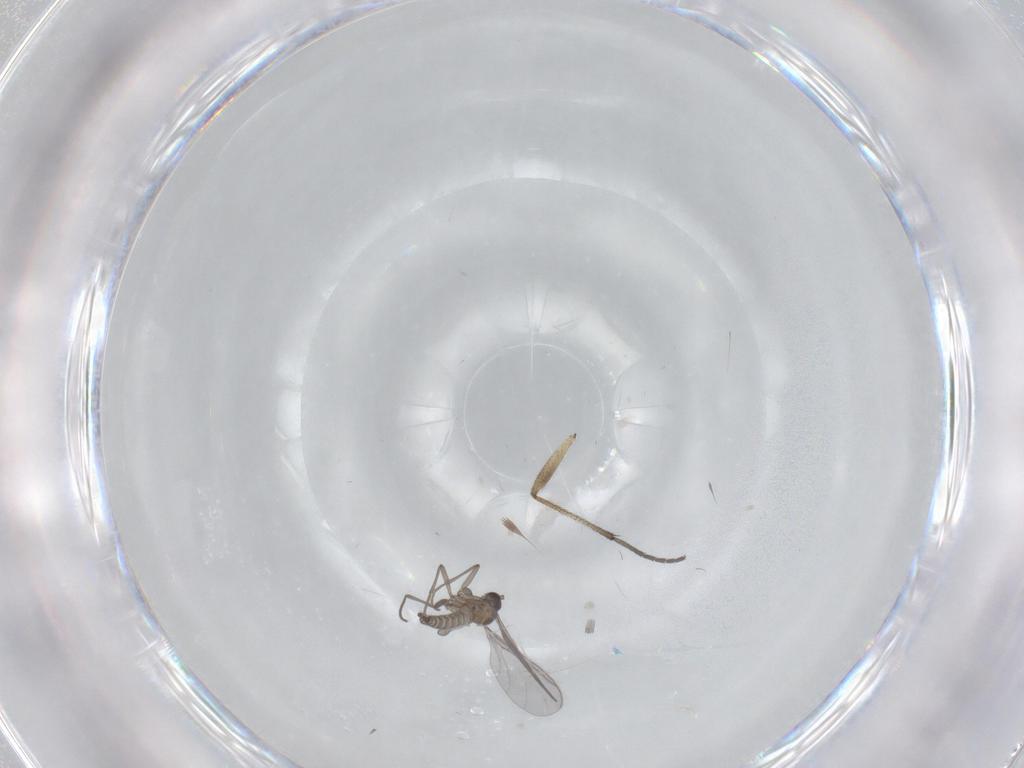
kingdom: Animalia
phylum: Arthropoda
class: Insecta
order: Diptera
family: Sciaridae
